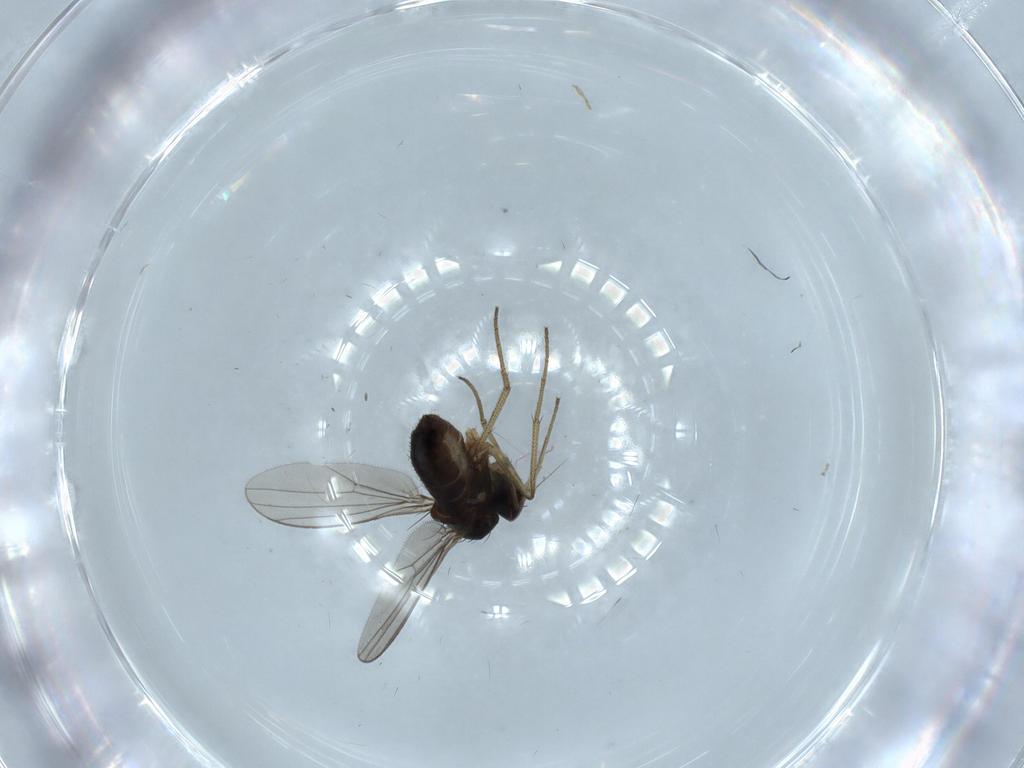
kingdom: Animalia
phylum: Arthropoda
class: Insecta
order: Diptera
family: Dolichopodidae
